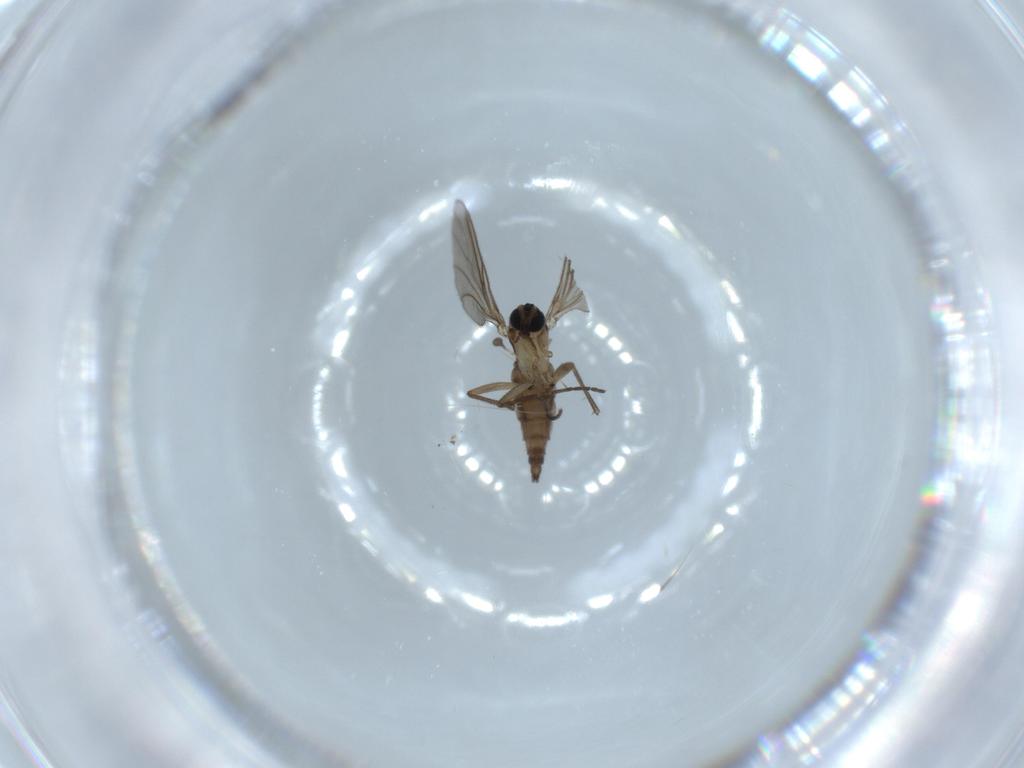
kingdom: Animalia
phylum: Arthropoda
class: Insecta
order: Diptera
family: Sciaridae
